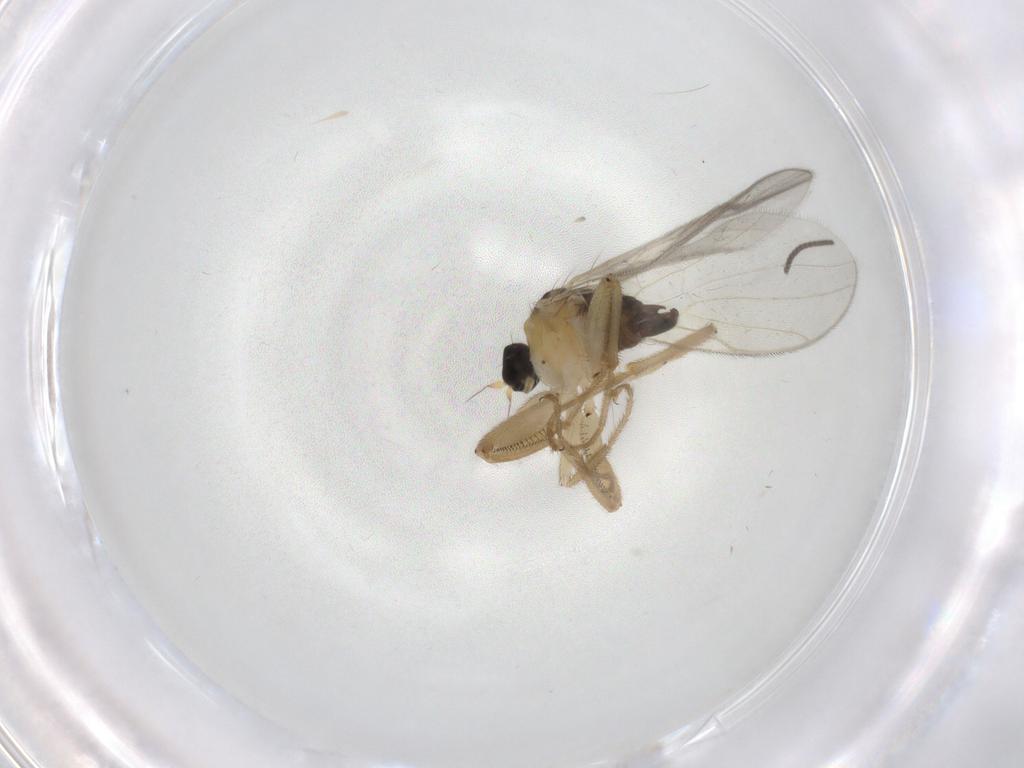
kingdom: Animalia
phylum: Arthropoda
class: Insecta
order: Diptera
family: Hybotidae
